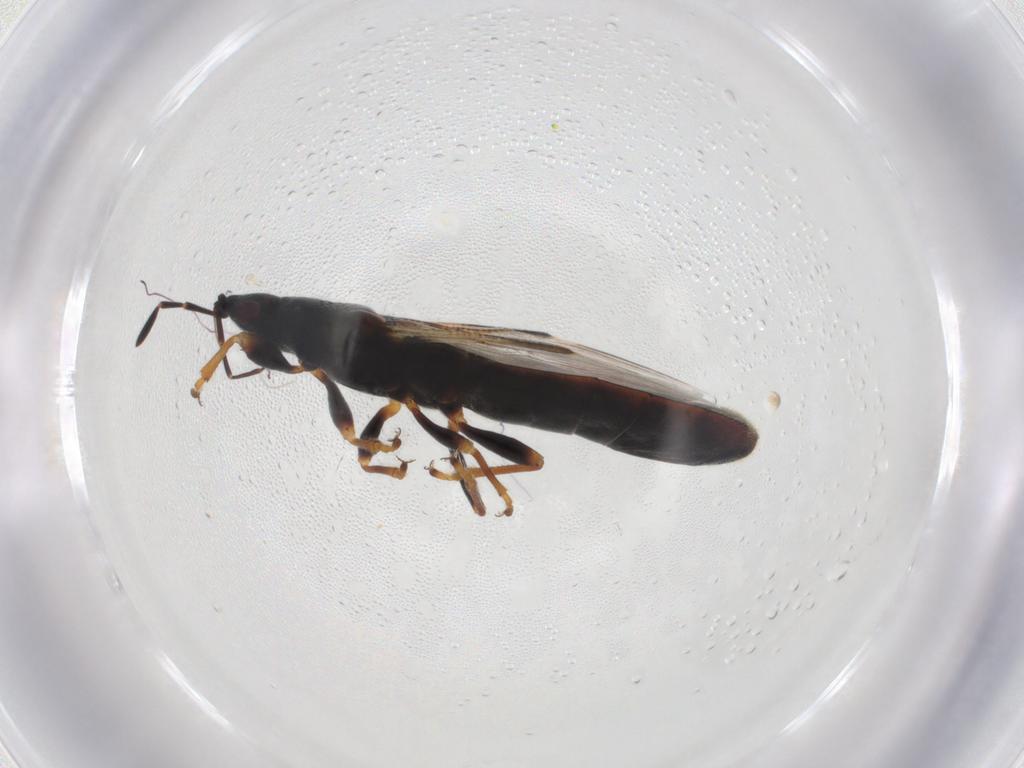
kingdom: Animalia
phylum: Arthropoda
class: Insecta
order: Hemiptera
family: Blissidae
